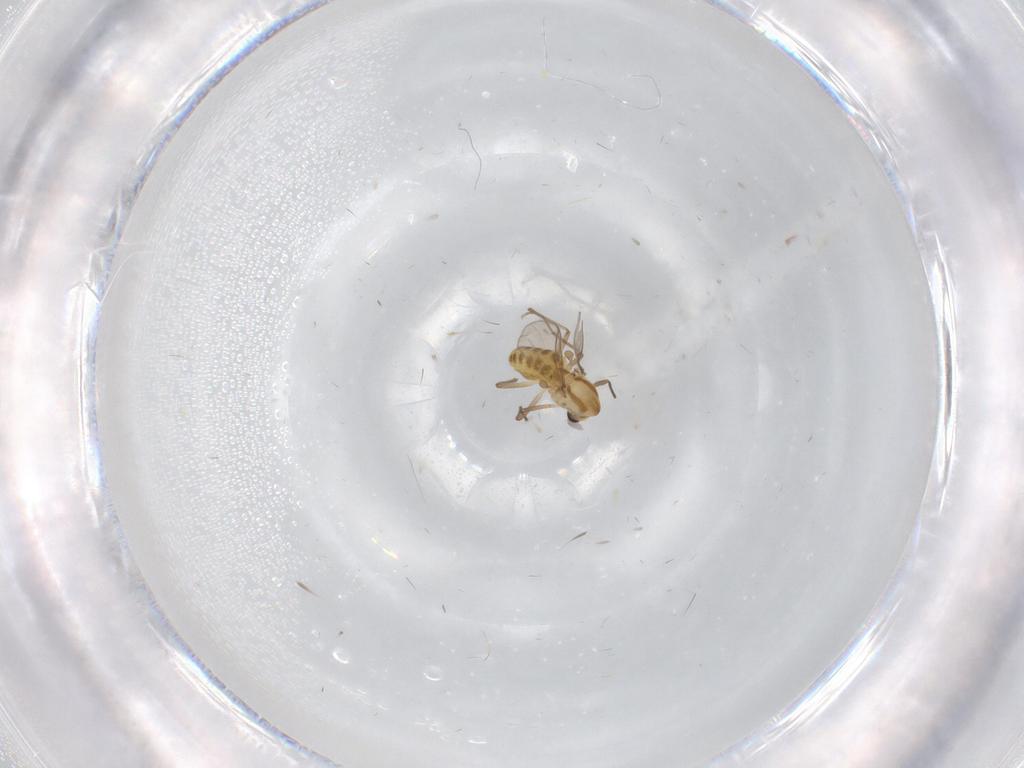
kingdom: Animalia
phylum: Arthropoda
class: Insecta
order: Diptera
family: Chironomidae
